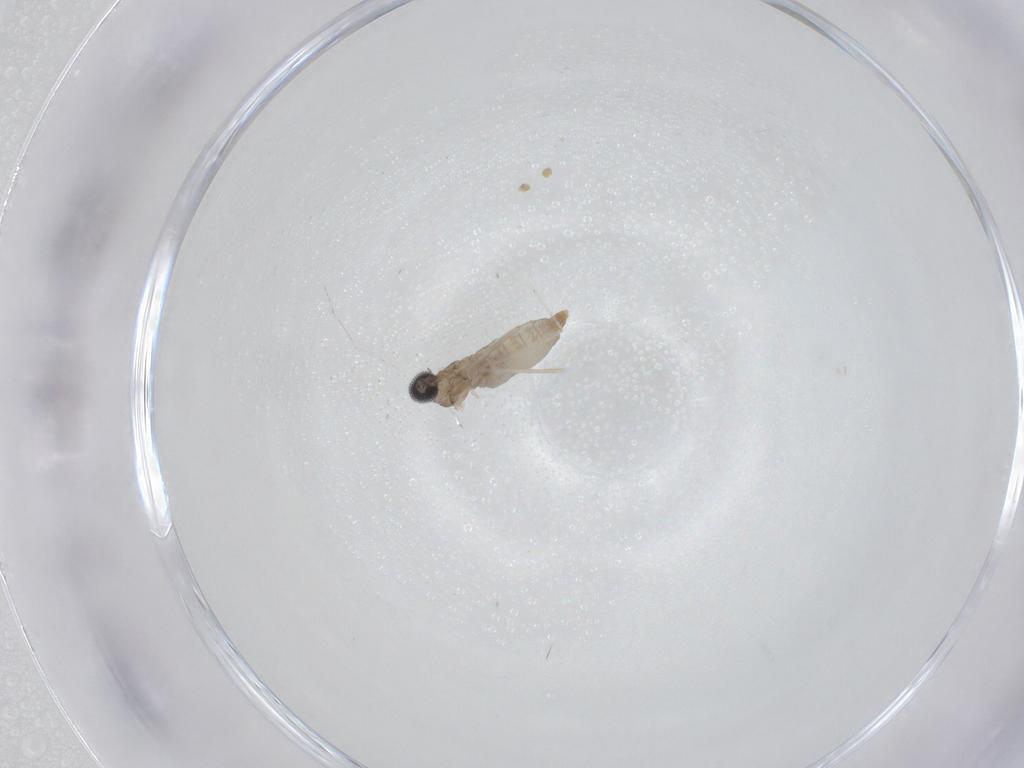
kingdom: Animalia
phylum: Arthropoda
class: Insecta
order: Diptera
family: Cecidomyiidae
